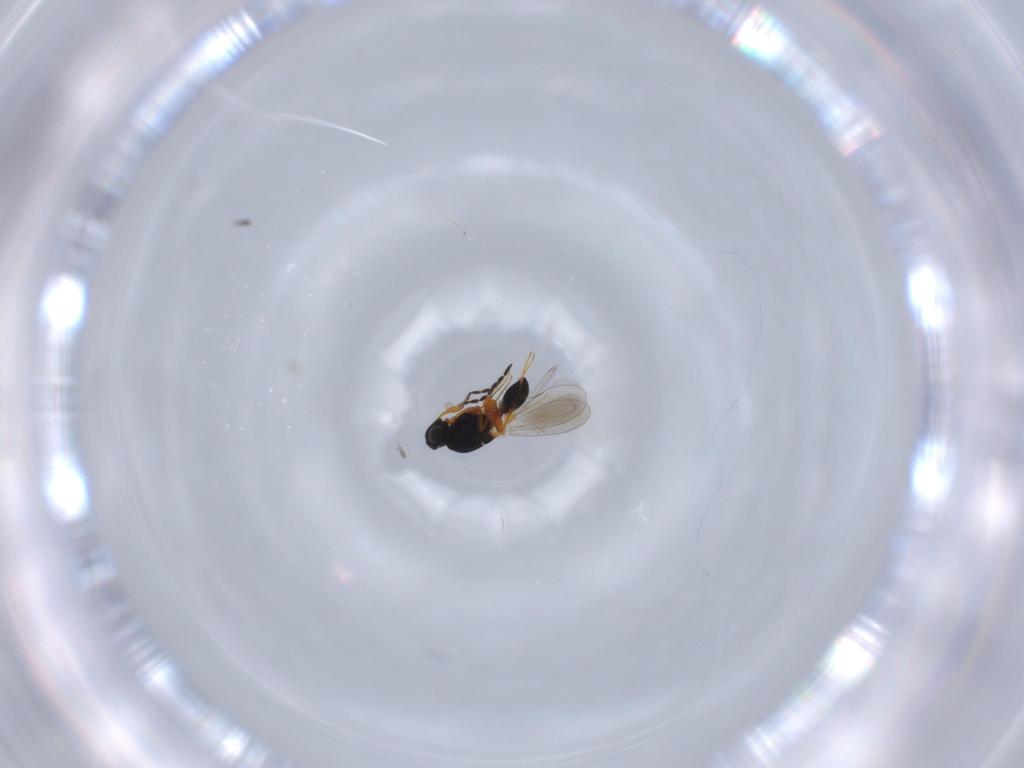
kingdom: Animalia
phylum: Arthropoda
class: Insecta
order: Hymenoptera
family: Platygastridae
